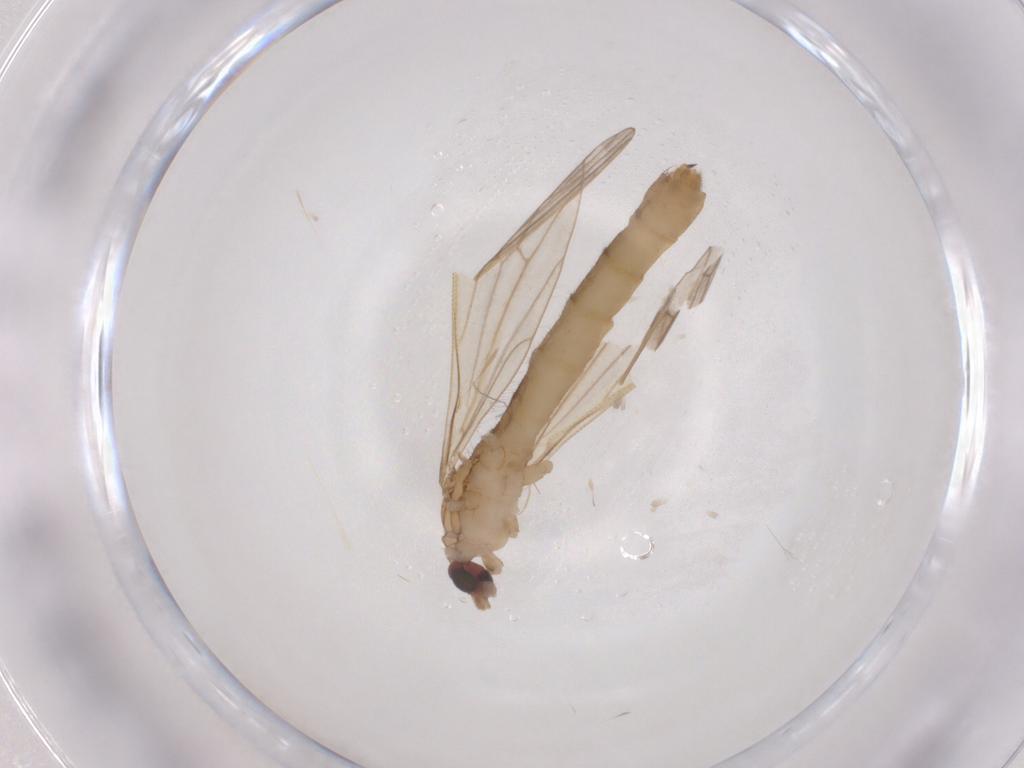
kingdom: Animalia
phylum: Arthropoda
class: Insecta
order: Diptera
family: Limoniidae
